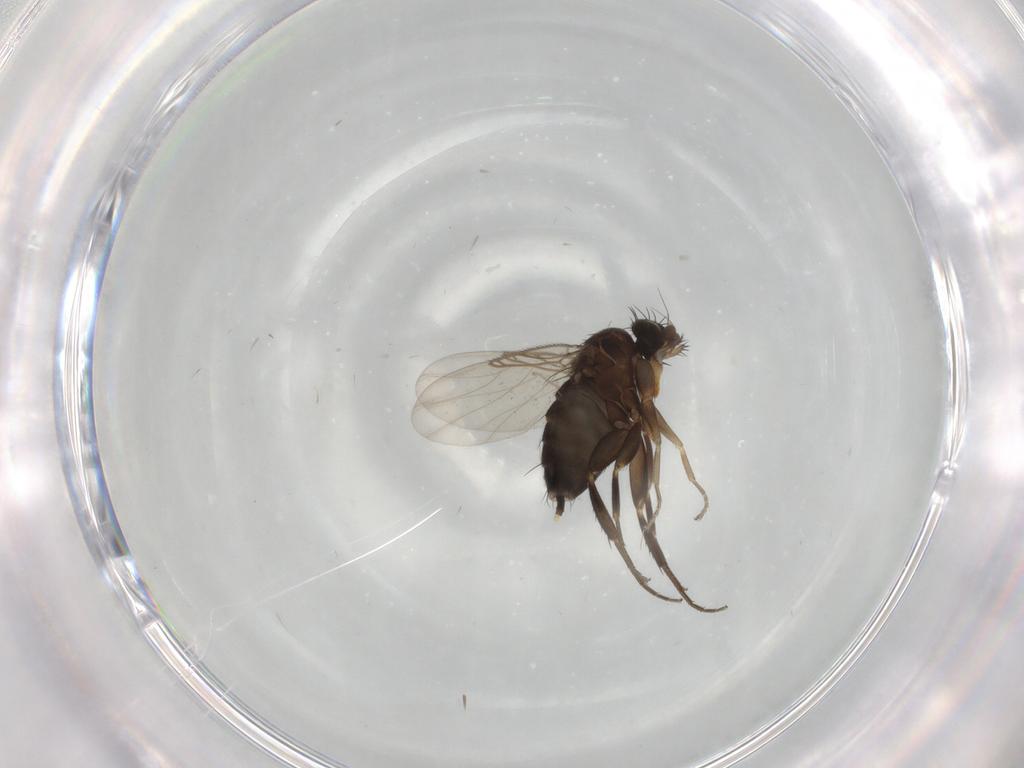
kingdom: Animalia
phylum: Arthropoda
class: Insecta
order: Diptera
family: Phoridae
